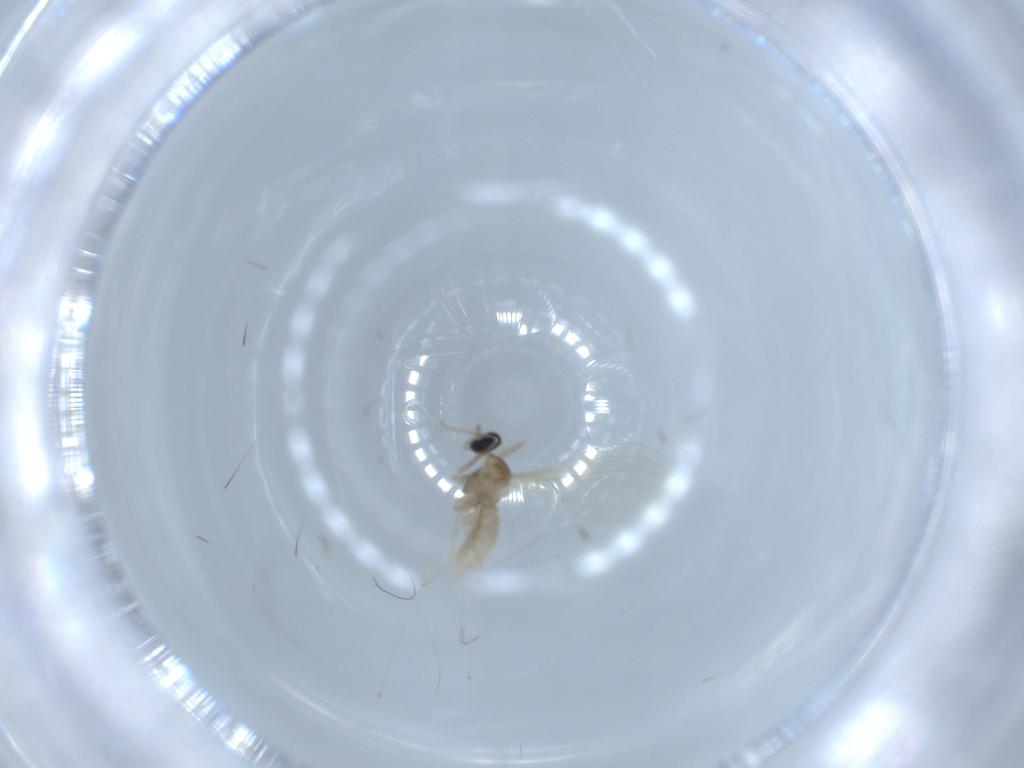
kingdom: Animalia
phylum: Arthropoda
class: Insecta
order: Diptera
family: Cecidomyiidae
